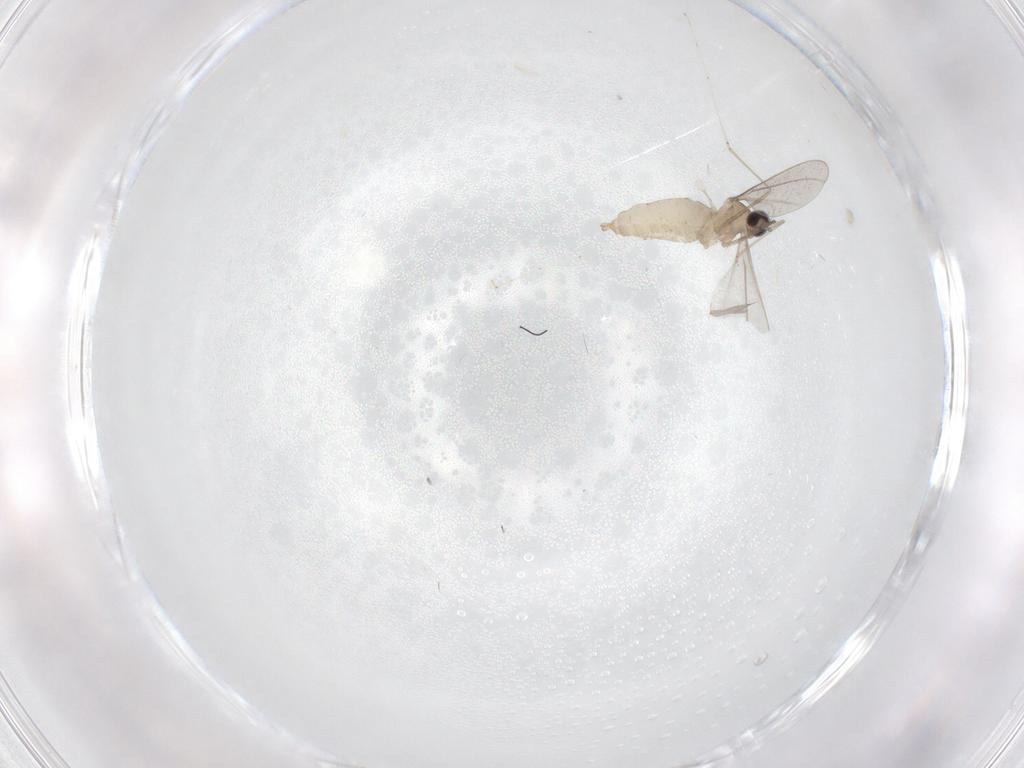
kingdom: Animalia
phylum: Arthropoda
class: Insecta
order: Diptera
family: Cecidomyiidae
